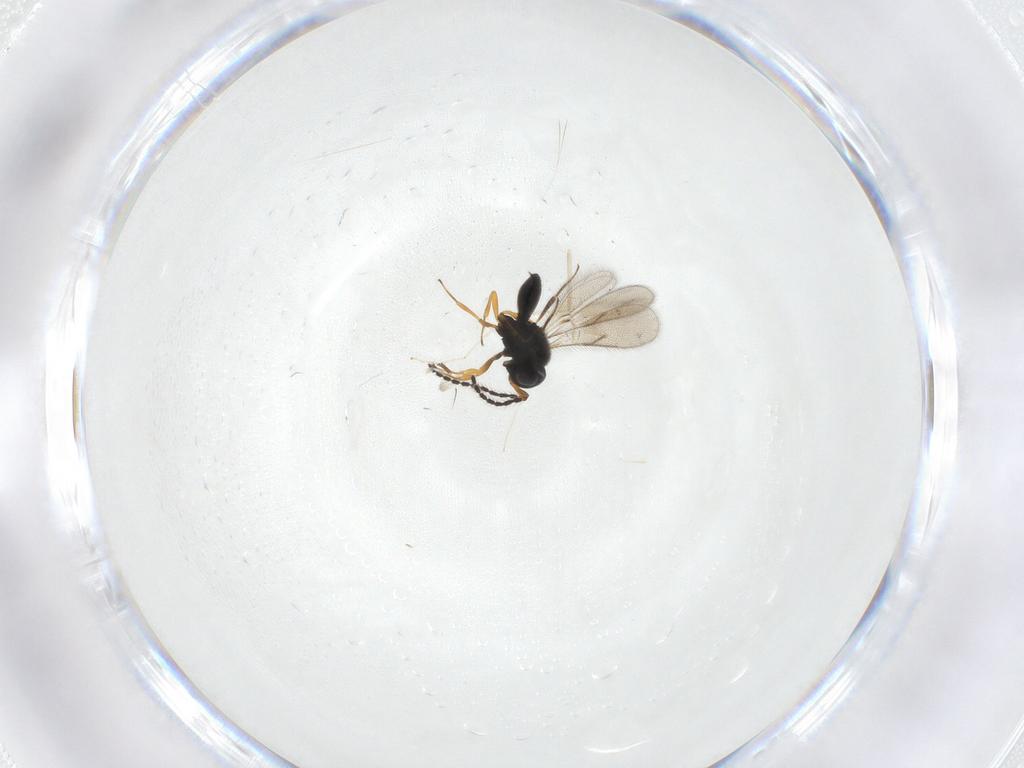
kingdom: Animalia
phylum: Arthropoda
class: Insecta
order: Hymenoptera
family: Scelionidae
